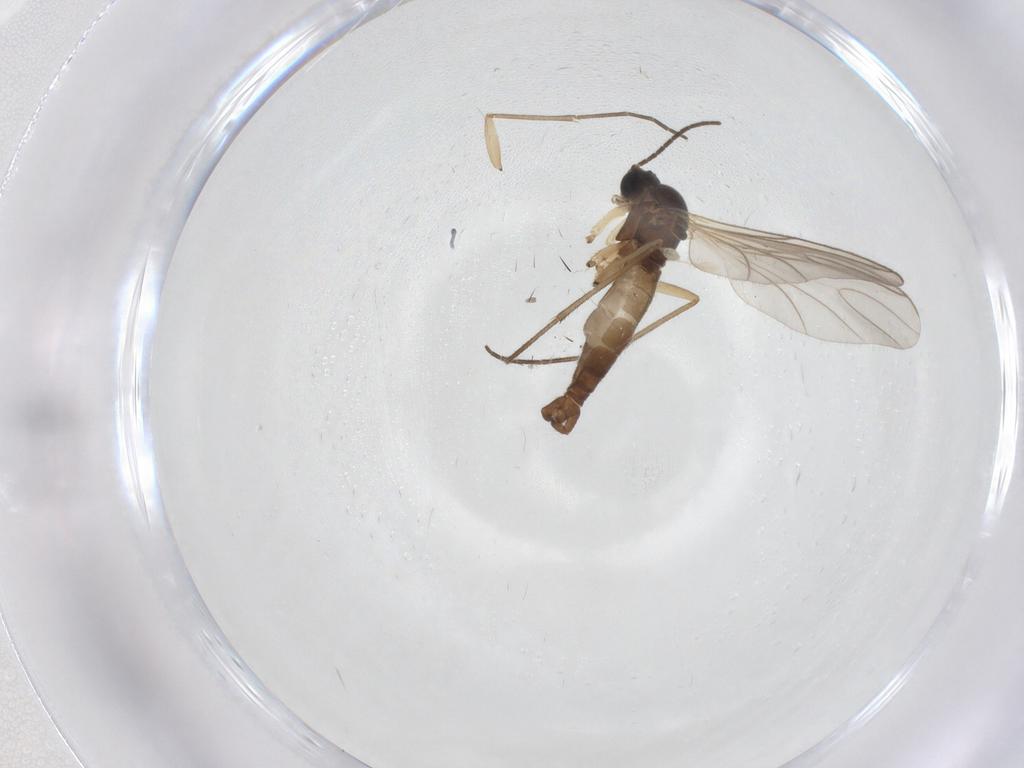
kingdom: Animalia
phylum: Arthropoda
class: Insecta
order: Diptera
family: Sciaridae
